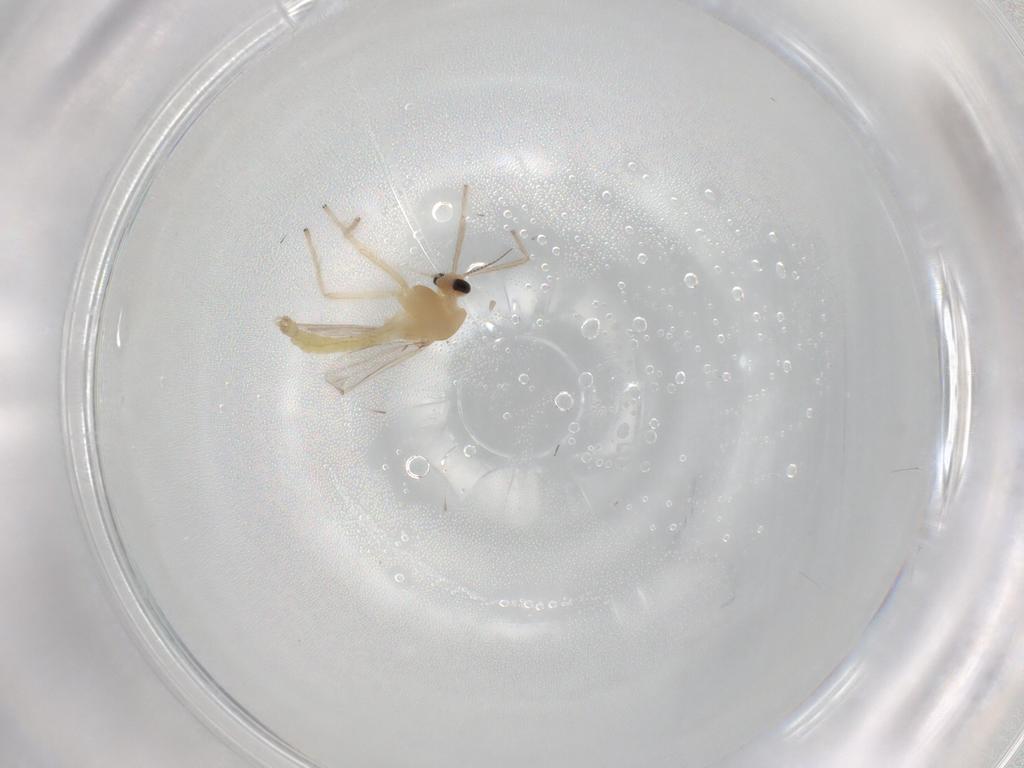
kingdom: Animalia
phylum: Arthropoda
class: Insecta
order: Diptera
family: Chironomidae
